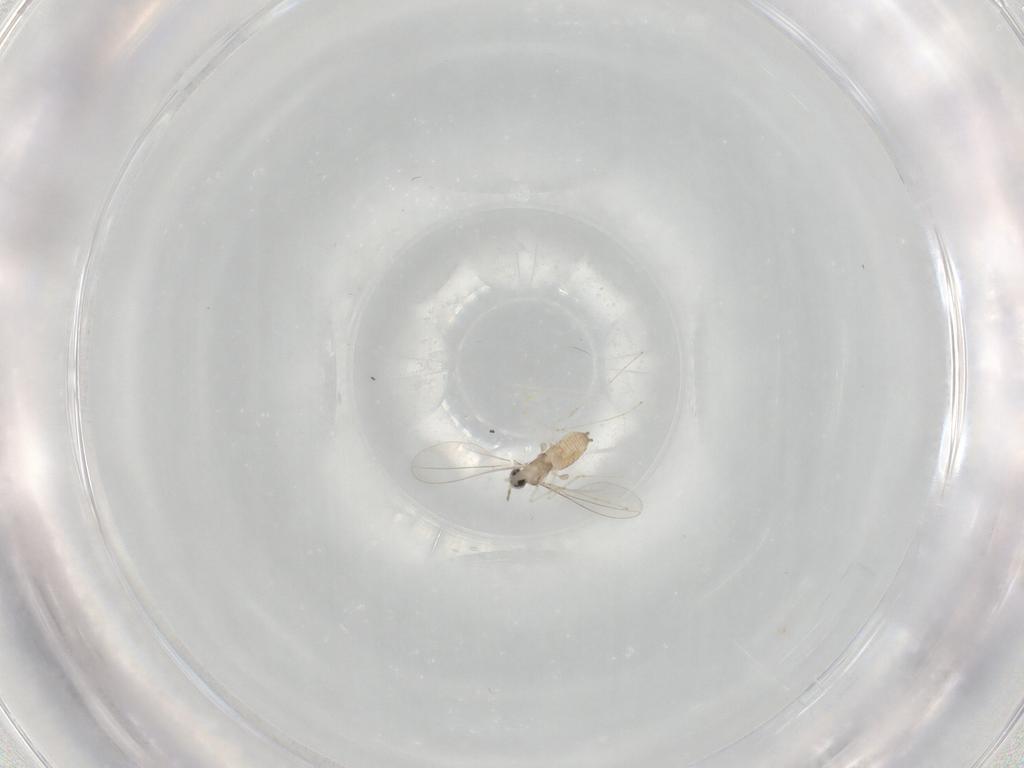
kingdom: Animalia
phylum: Arthropoda
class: Insecta
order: Diptera
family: Cecidomyiidae
